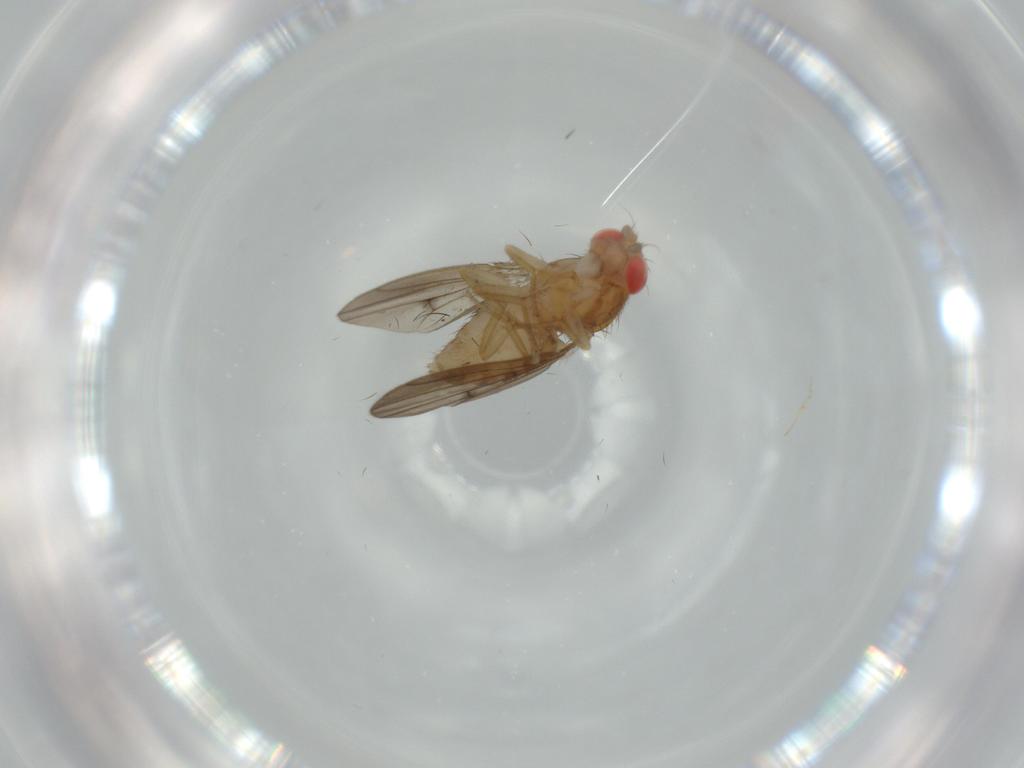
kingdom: Animalia
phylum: Arthropoda
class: Insecta
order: Diptera
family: Drosophilidae
